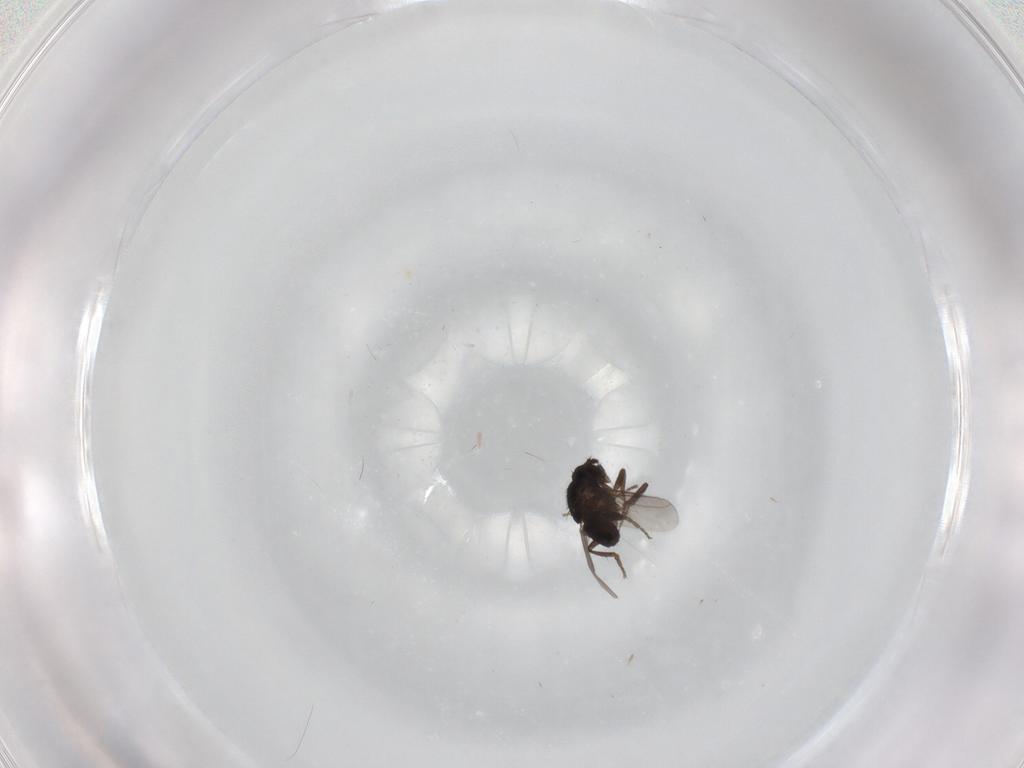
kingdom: Animalia
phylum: Arthropoda
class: Insecta
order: Diptera
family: Sphaeroceridae
